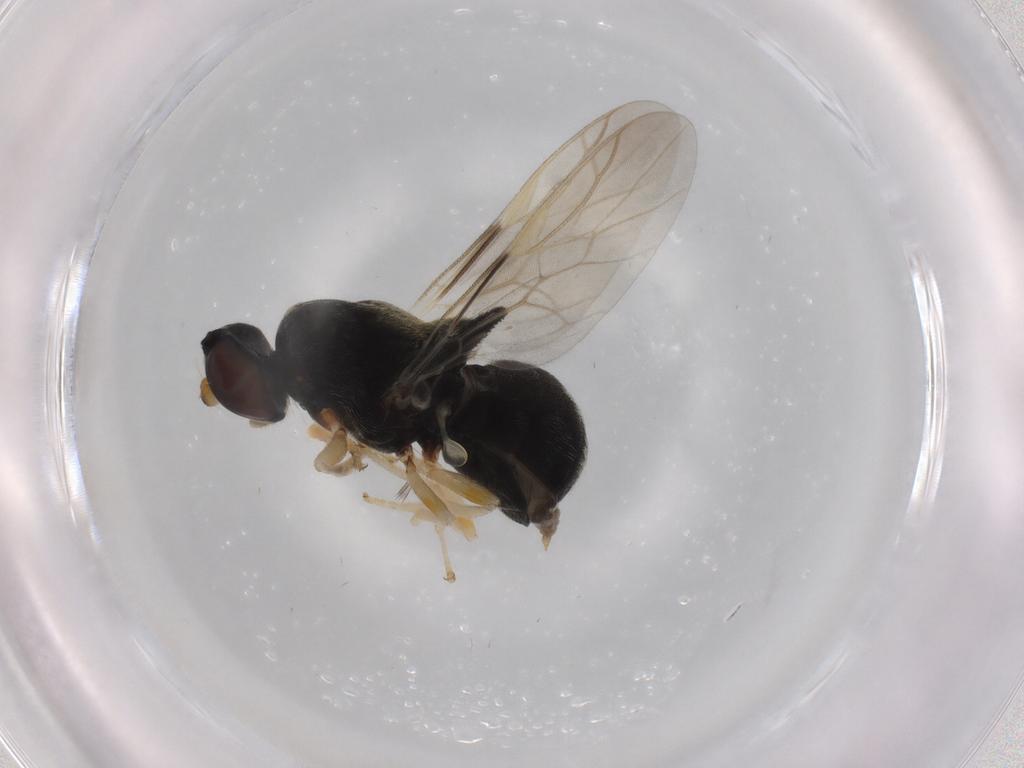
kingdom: Animalia
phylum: Arthropoda
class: Insecta
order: Diptera
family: Stratiomyidae
